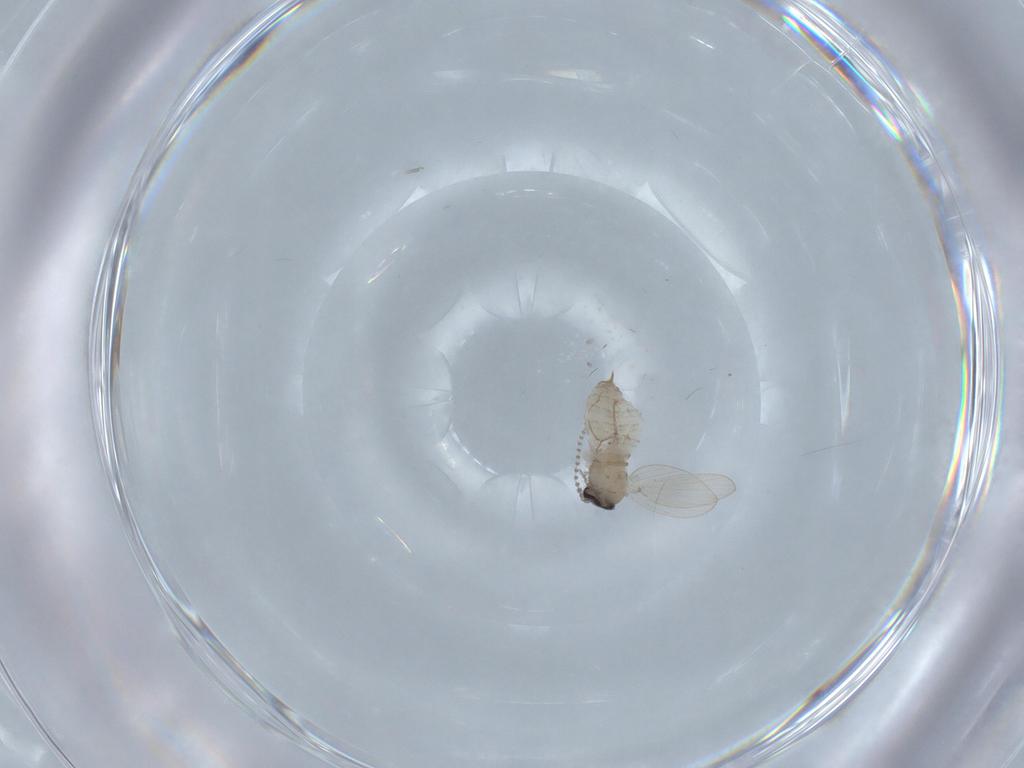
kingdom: Animalia
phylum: Arthropoda
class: Insecta
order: Diptera
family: Psychodidae
